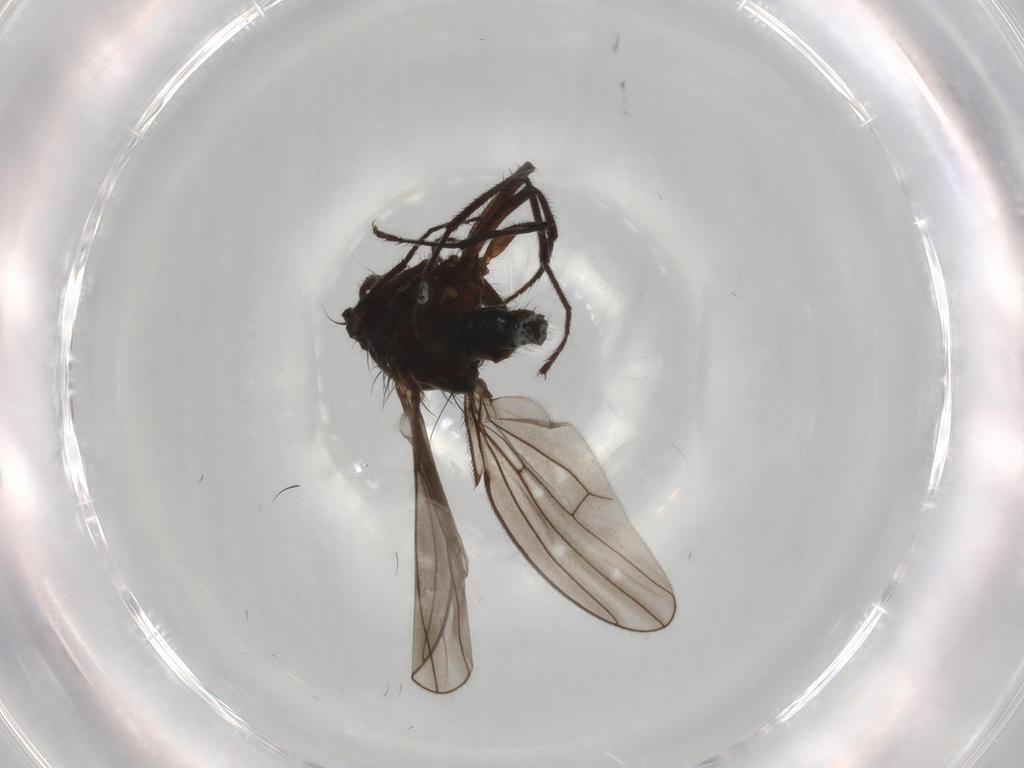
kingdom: Animalia
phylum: Arthropoda
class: Insecta
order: Diptera
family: Ephydridae
